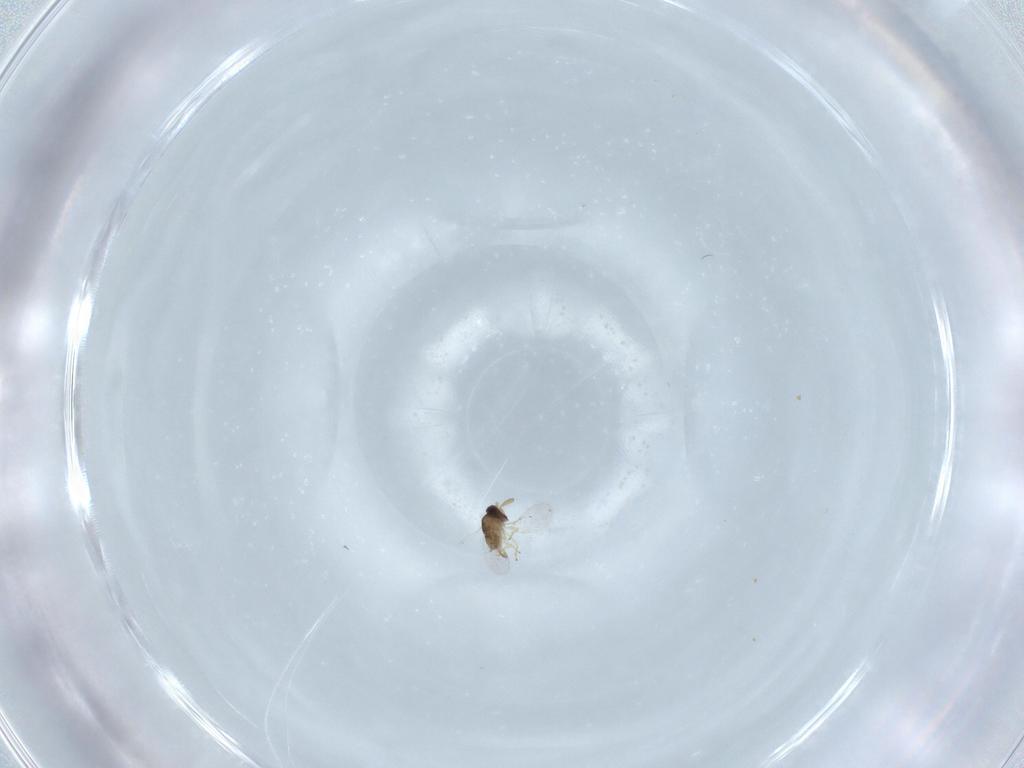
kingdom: Animalia
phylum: Arthropoda
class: Insecta
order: Hymenoptera
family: Encyrtidae
